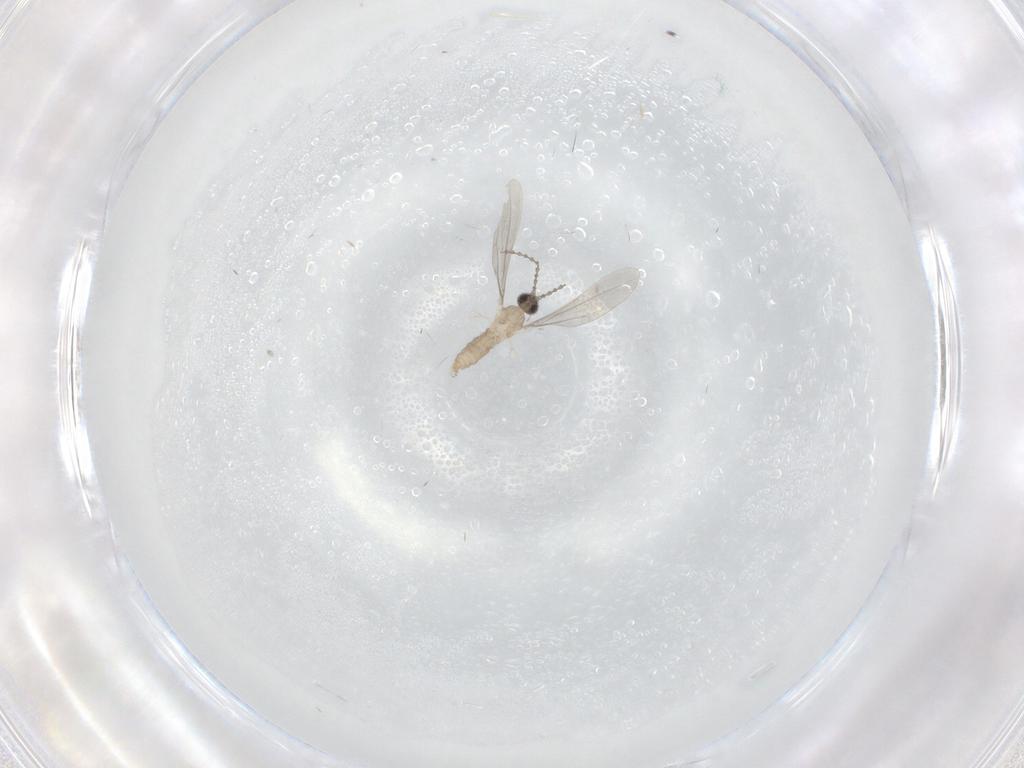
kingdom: Animalia
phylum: Arthropoda
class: Insecta
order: Diptera
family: Cecidomyiidae
